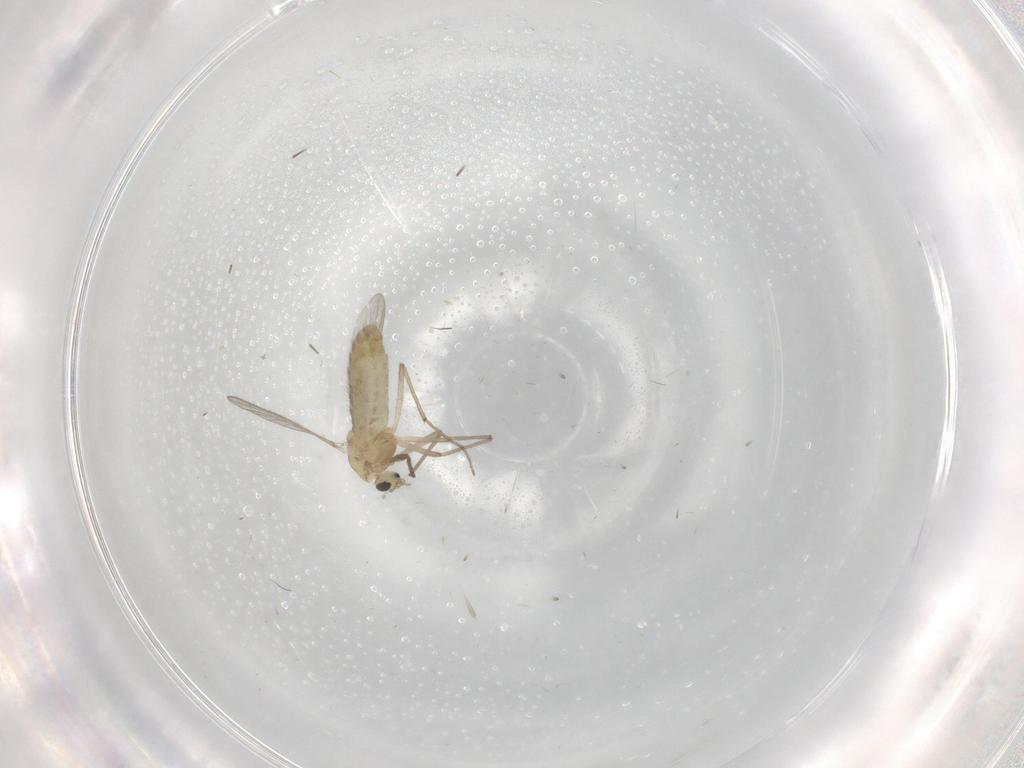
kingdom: Animalia
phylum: Arthropoda
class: Insecta
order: Diptera
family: Chironomidae
